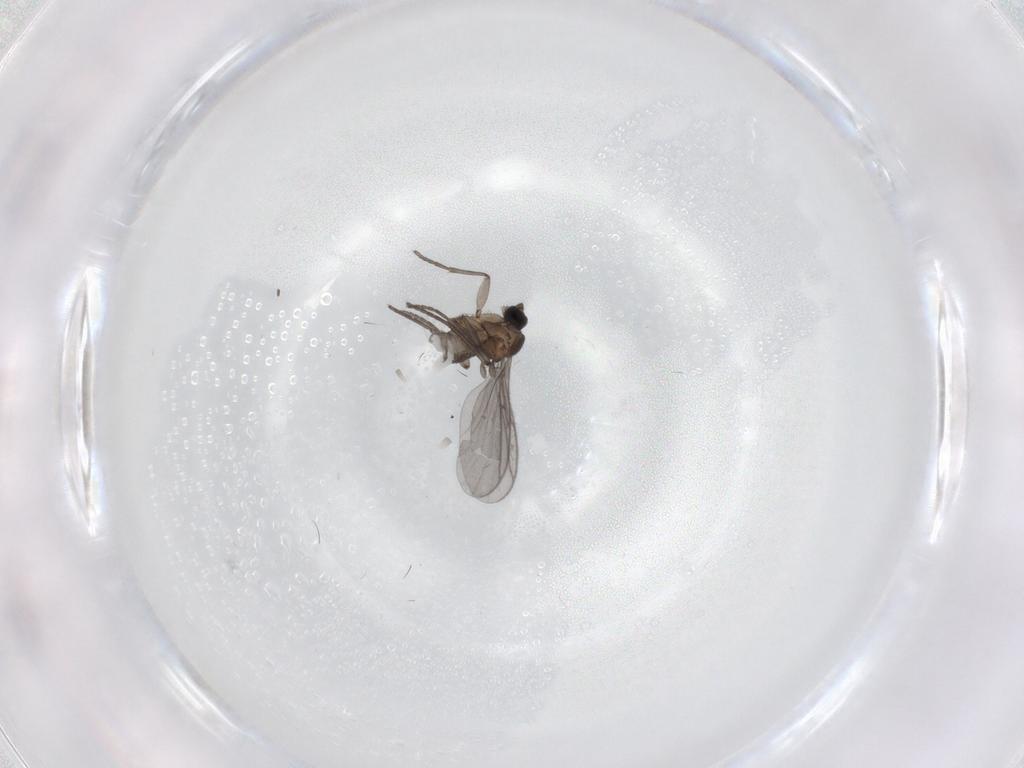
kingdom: Animalia
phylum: Arthropoda
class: Insecta
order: Diptera
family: Sciaridae
